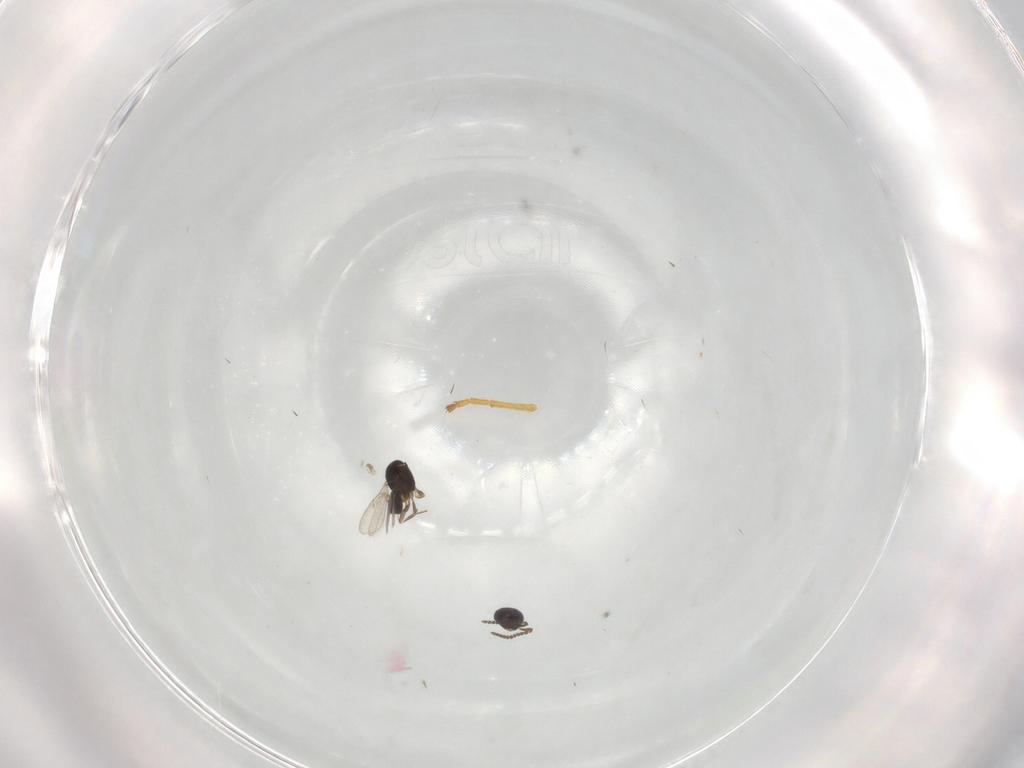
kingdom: Animalia
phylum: Arthropoda
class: Insecta
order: Hymenoptera
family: Scelionidae
